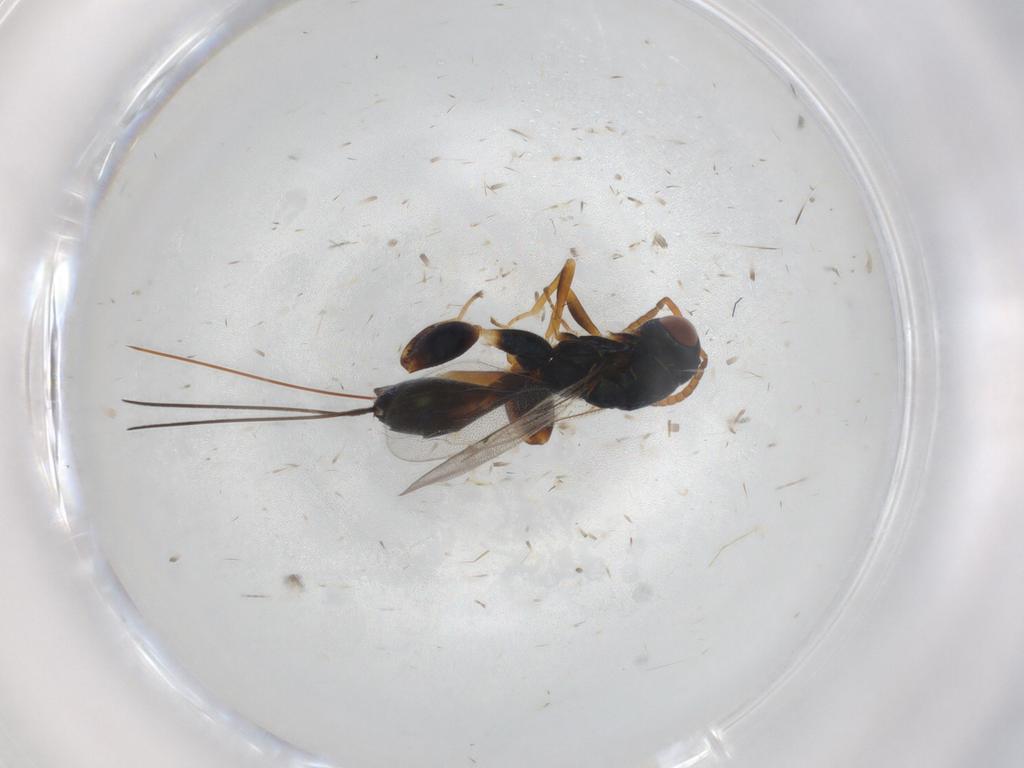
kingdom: Animalia
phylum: Arthropoda
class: Insecta
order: Hymenoptera
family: Torymidae
